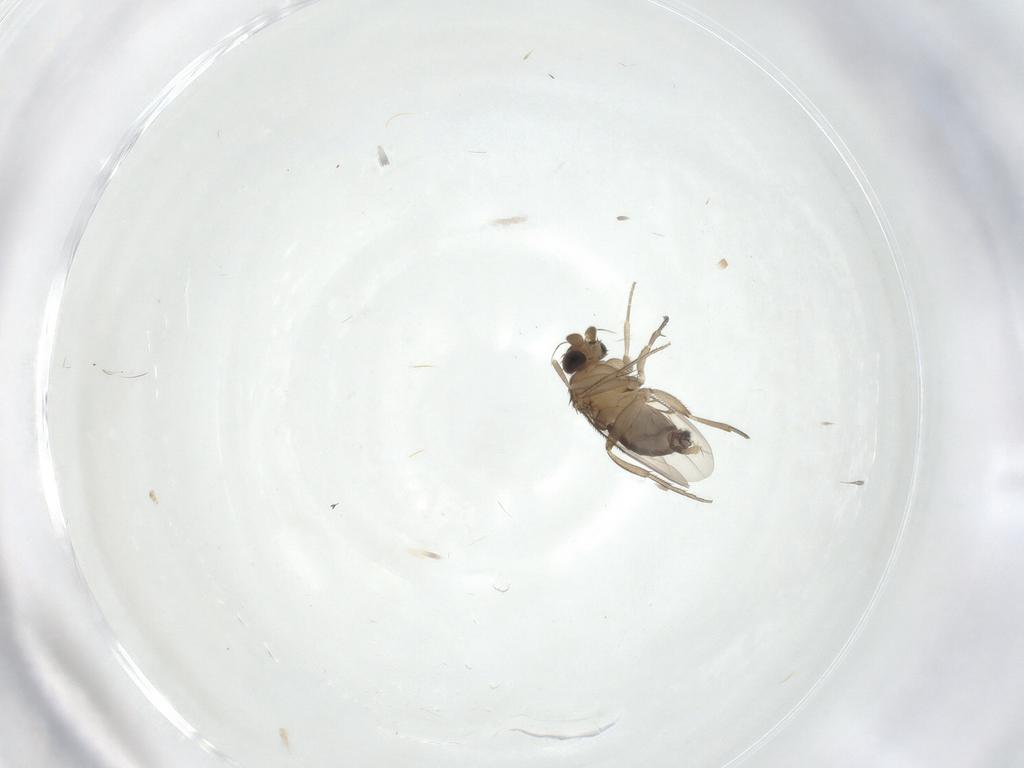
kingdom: Animalia
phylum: Arthropoda
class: Insecta
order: Diptera
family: Phoridae
